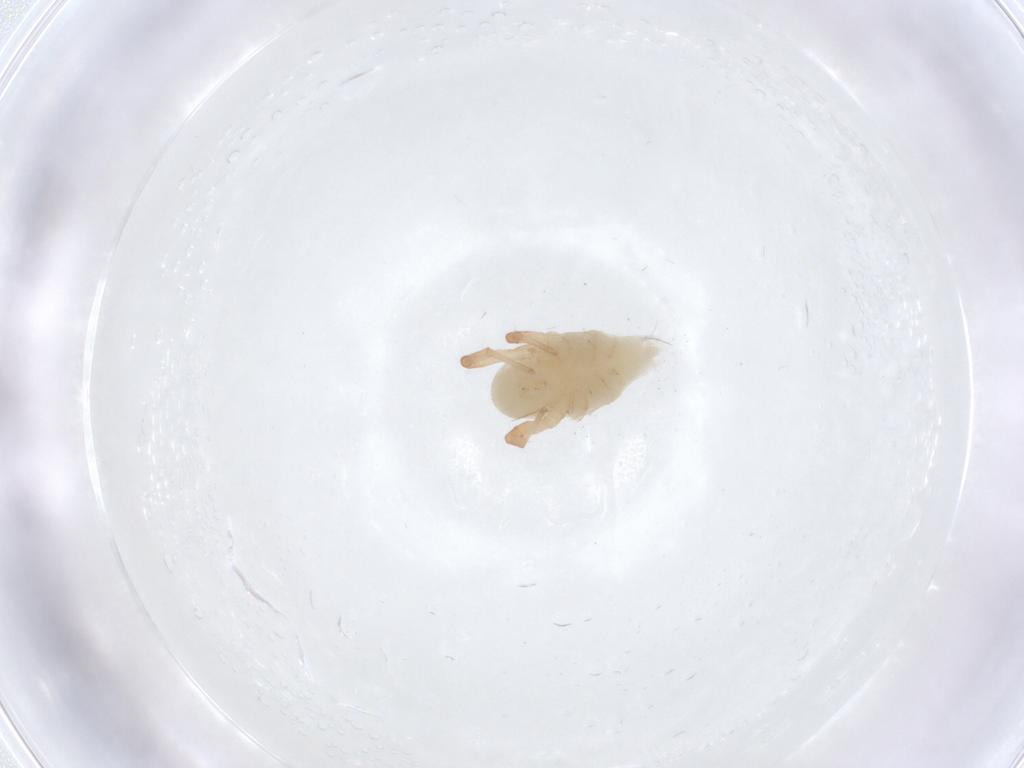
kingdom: Animalia
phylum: Arthropoda
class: Arachnida
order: Trombidiformes
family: Bdellidae
